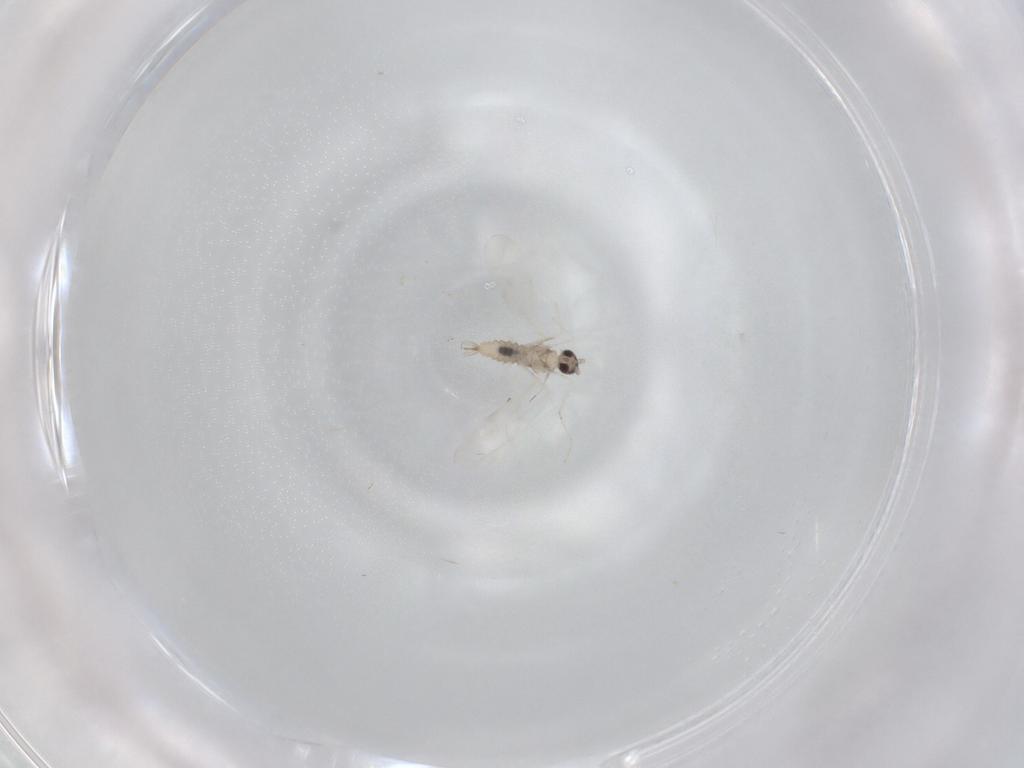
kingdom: Animalia
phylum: Arthropoda
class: Insecta
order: Diptera
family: Cecidomyiidae
